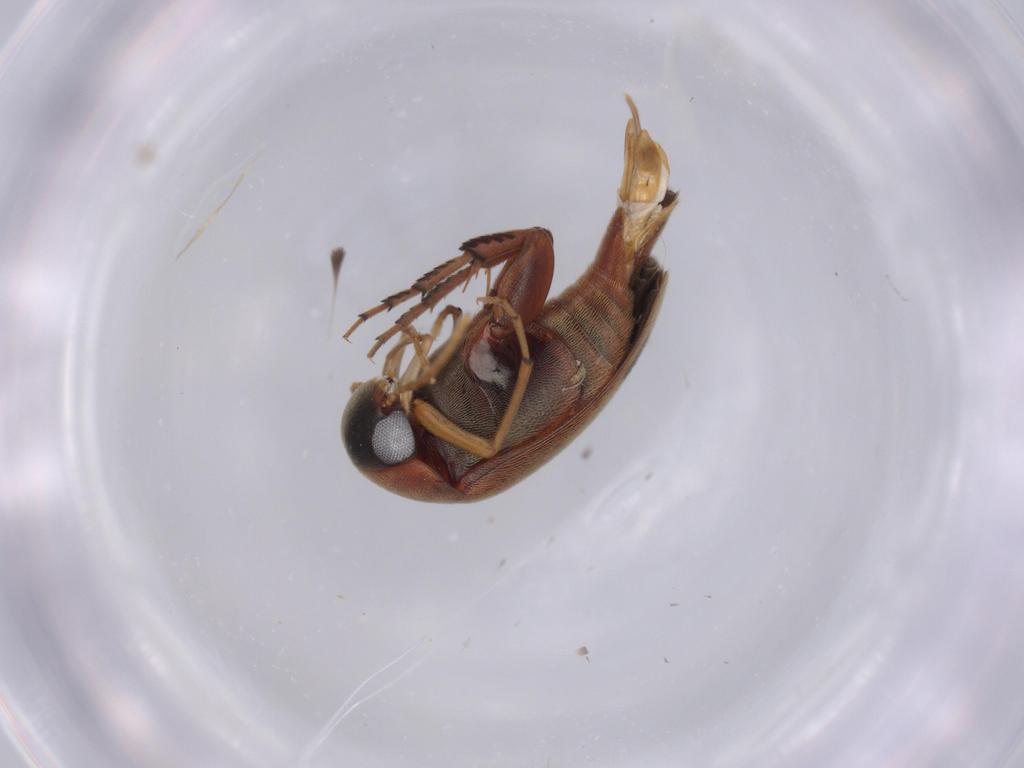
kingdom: Animalia
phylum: Arthropoda
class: Insecta
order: Coleoptera
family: Mordellidae
